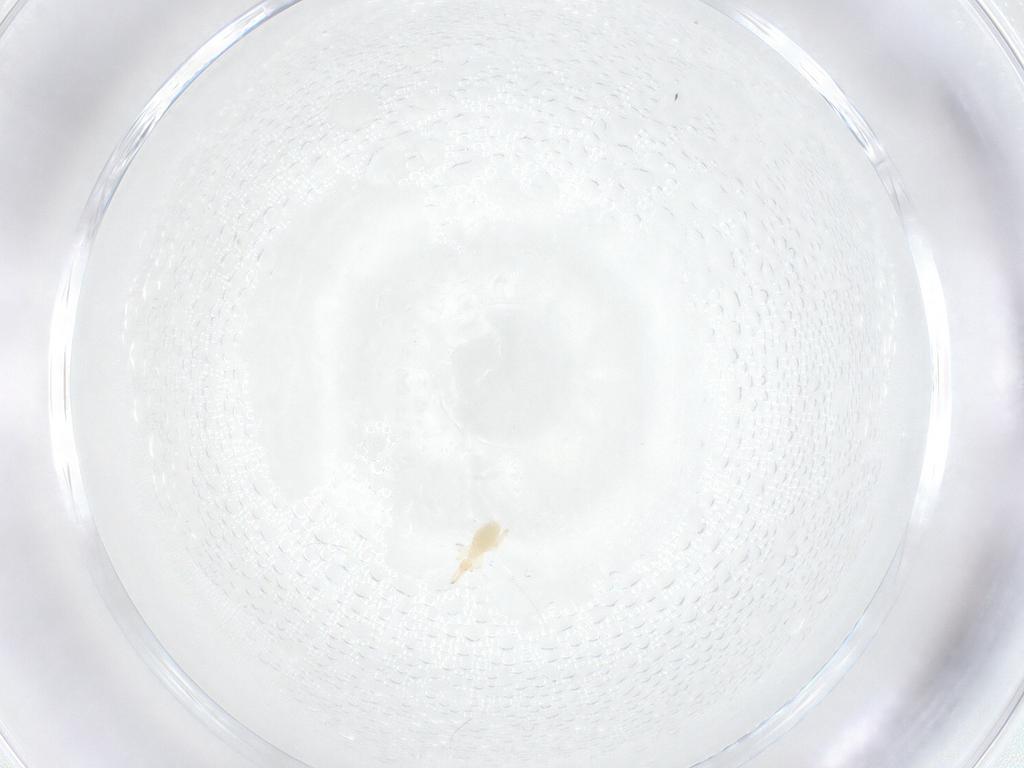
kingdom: Animalia
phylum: Arthropoda
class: Arachnida
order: Trombidiformes
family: Cunaxidae
